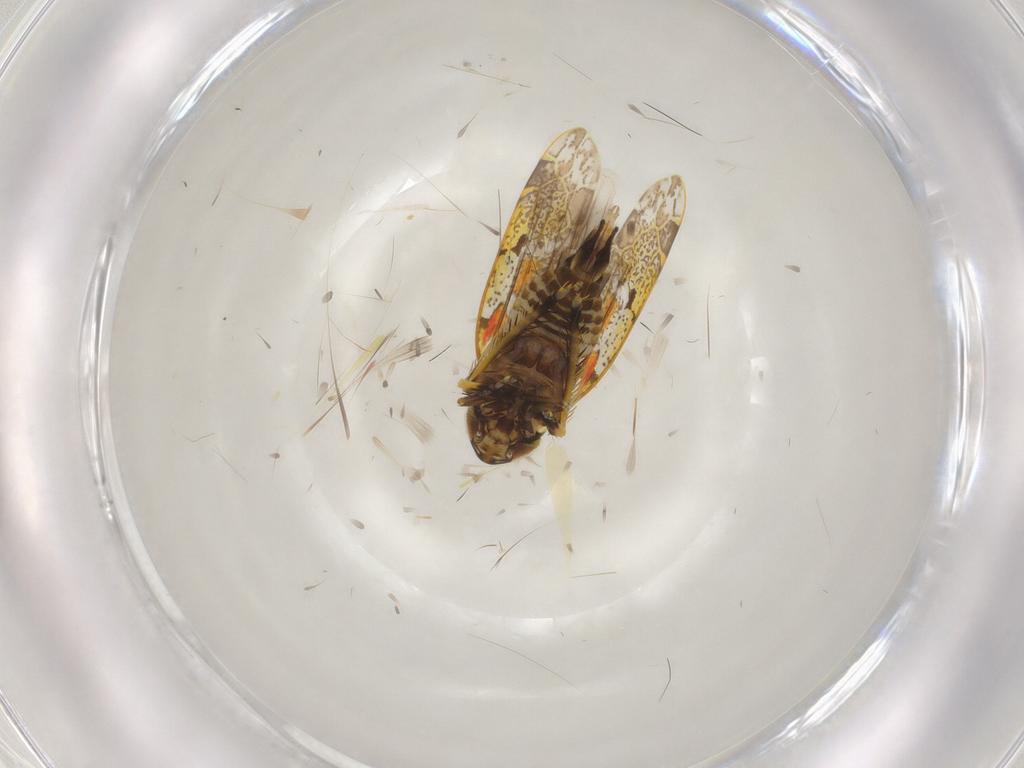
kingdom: Animalia
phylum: Arthropoda
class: Insecta
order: Hemiptera
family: Cicadellidae
